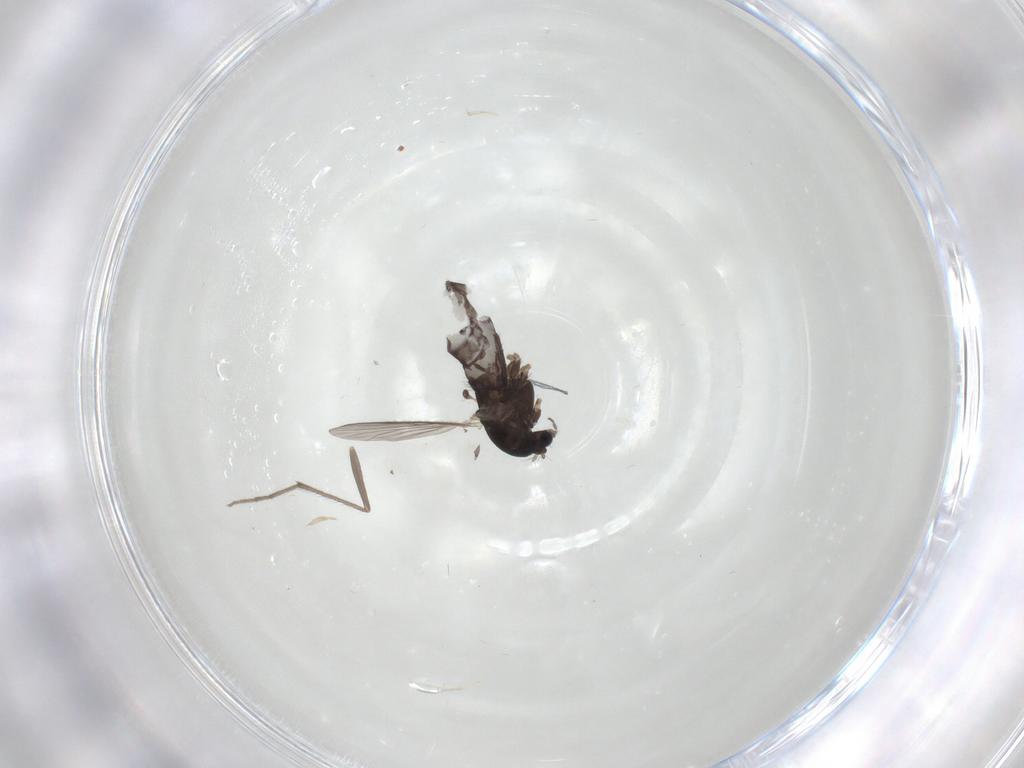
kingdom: Animalia
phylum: Arthropoda
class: Insecta
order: Diptera
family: Chironomidae
